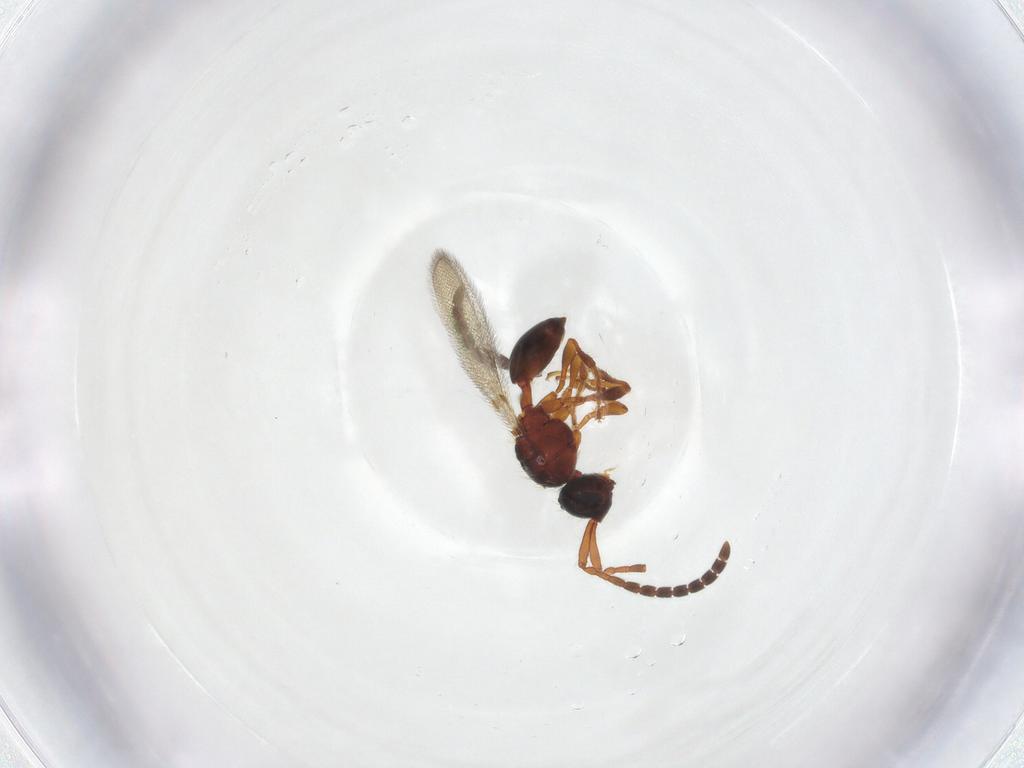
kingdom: Animalia
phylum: Arthropoda
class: Insecta
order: Hymenoptera
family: Diapriidae
